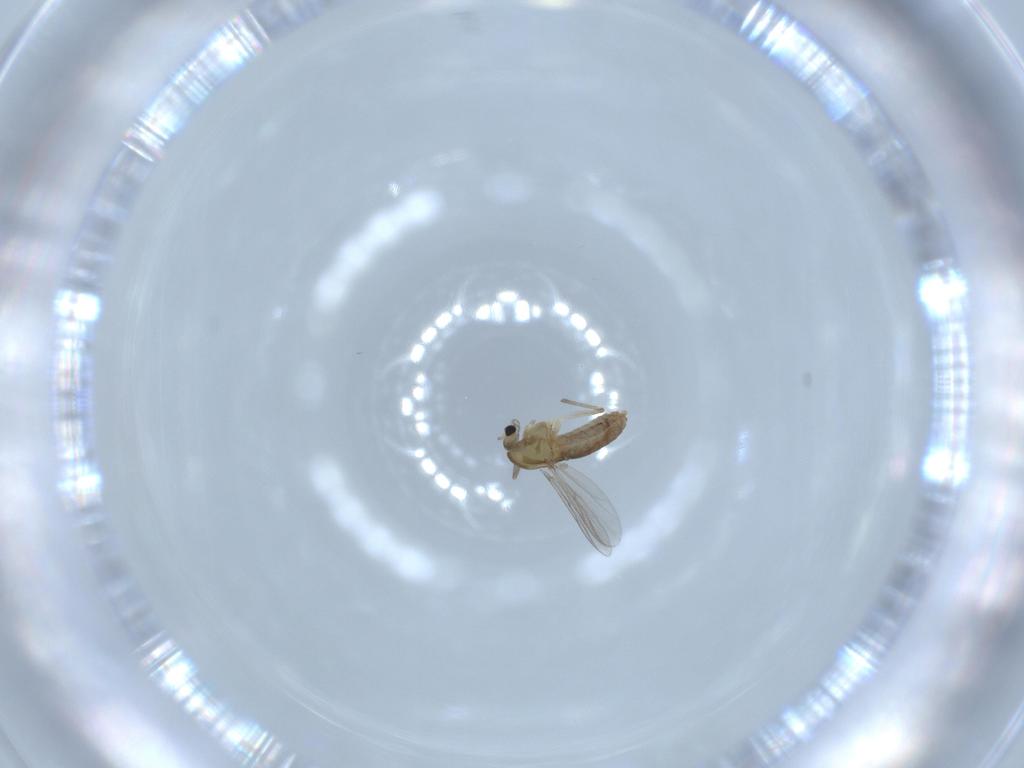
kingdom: Animalia
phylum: Arthropoda
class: Insecta
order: Diptera
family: Chironomidae
